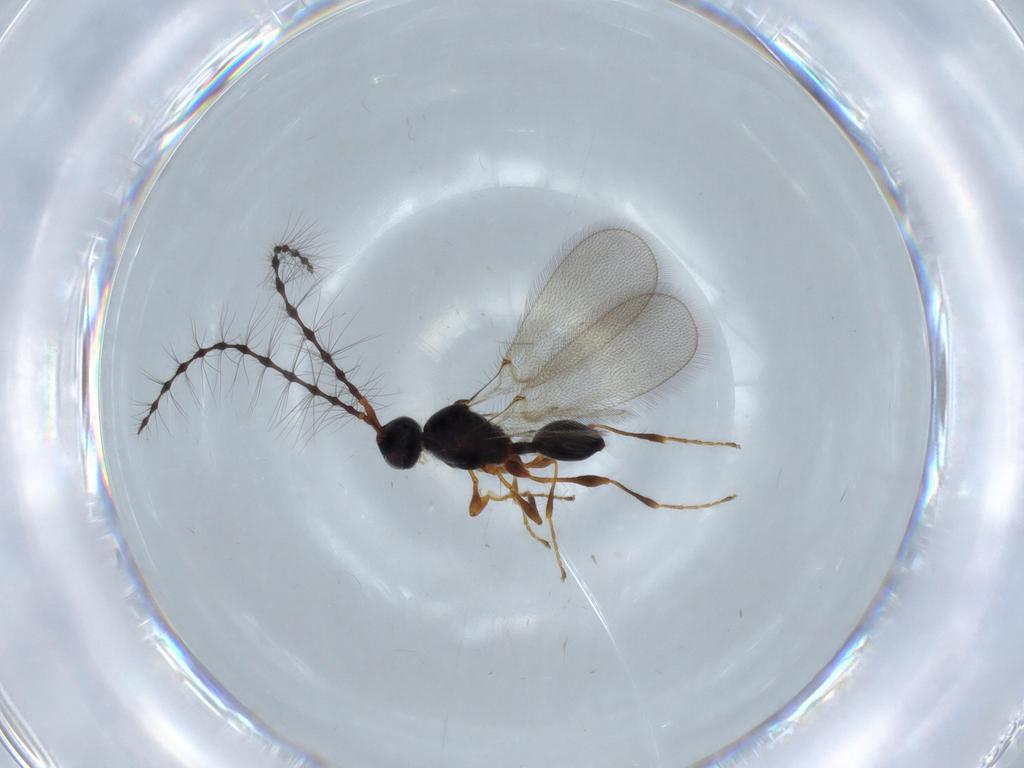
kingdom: Animalia
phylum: Arthropoda
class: Insecta
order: Hymenoptera
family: Diapriidae
